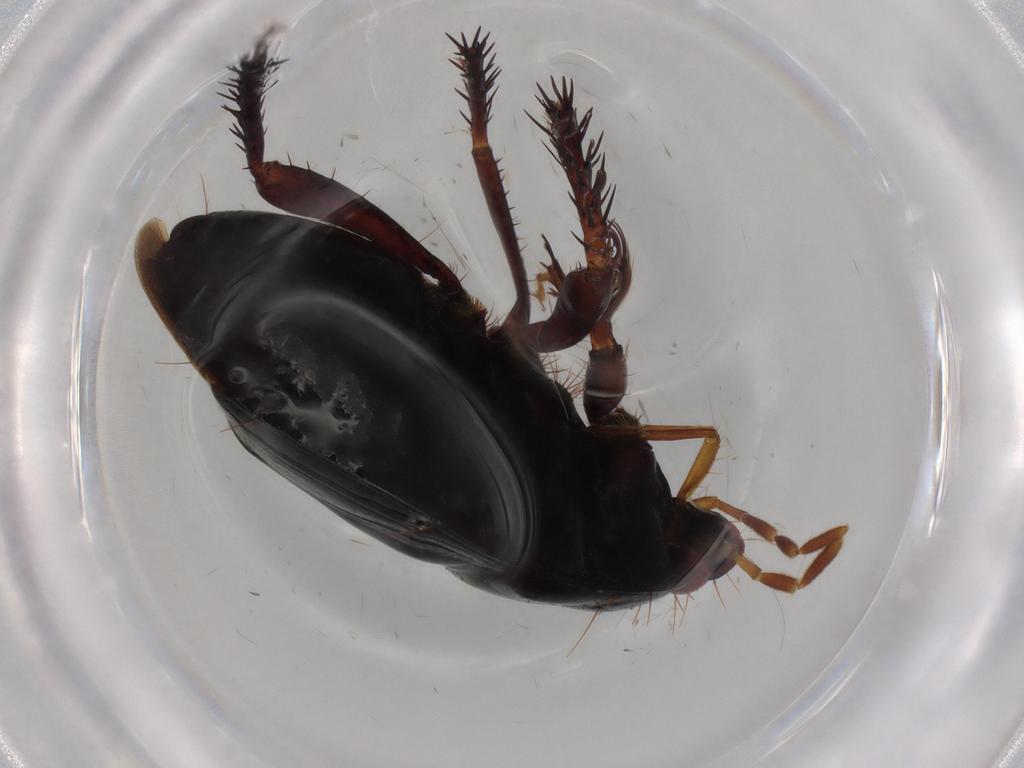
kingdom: Animalia
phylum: Arthropoda
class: Insecta
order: Hemiptera
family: Cydnidae
